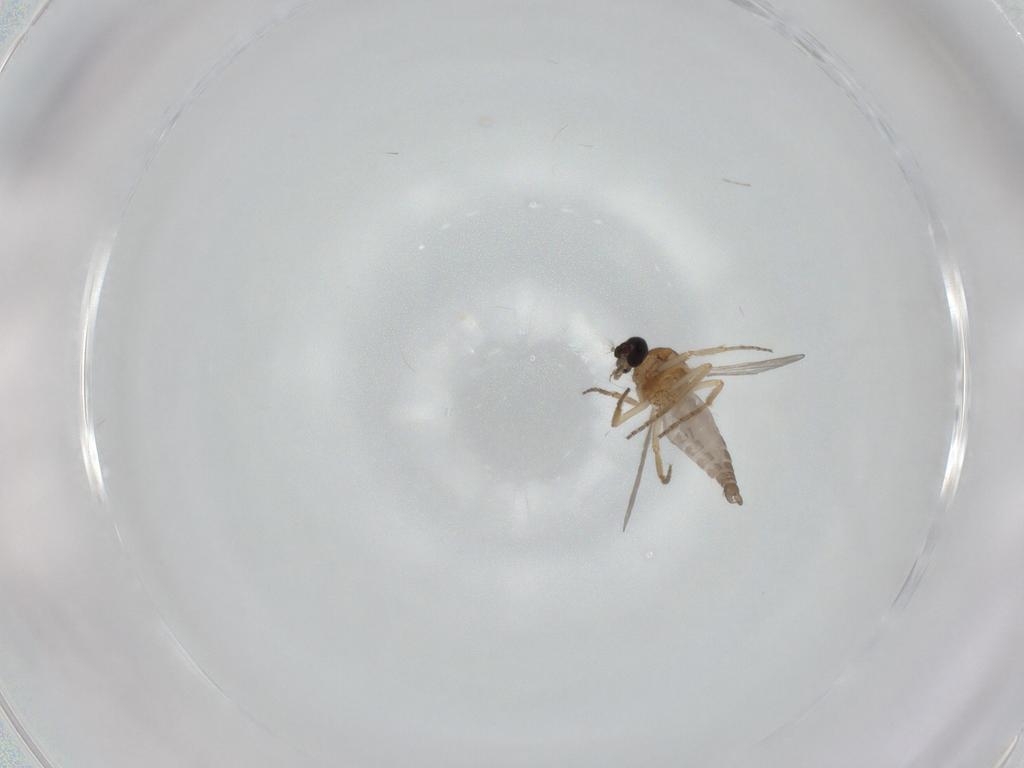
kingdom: Animalia
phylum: Arthropoda
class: Insecta
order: Diptera
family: Ceratopogonidae
